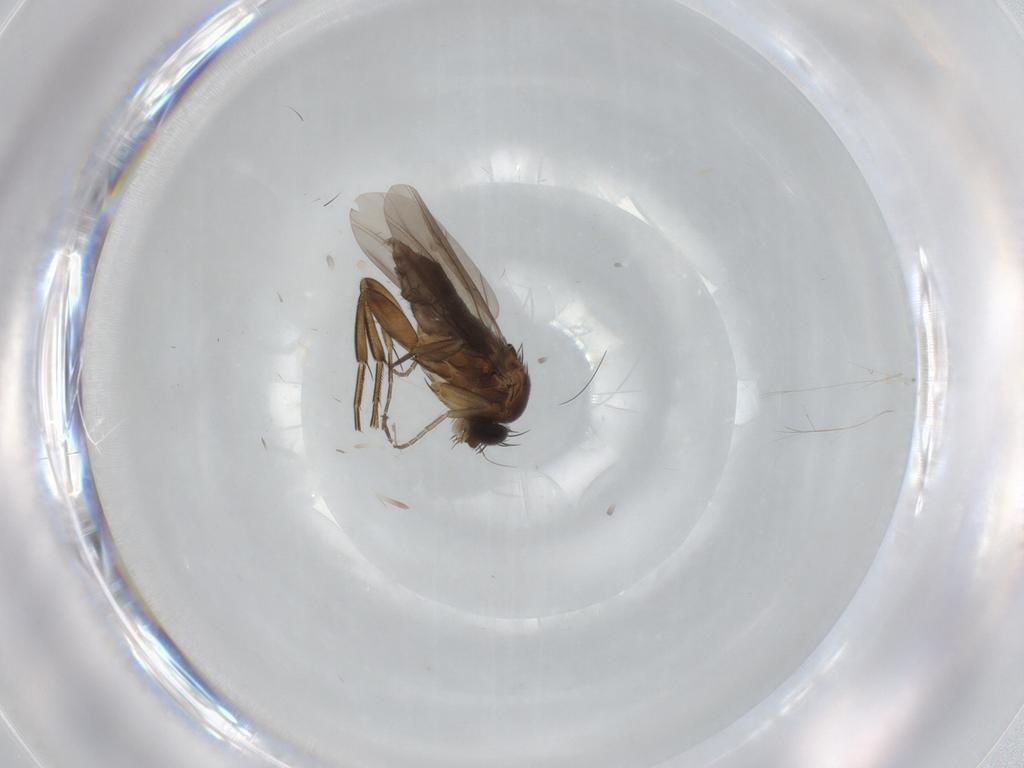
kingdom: Animalia
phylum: Arthropoda
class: Insecta
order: Diptera
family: Phoridae
